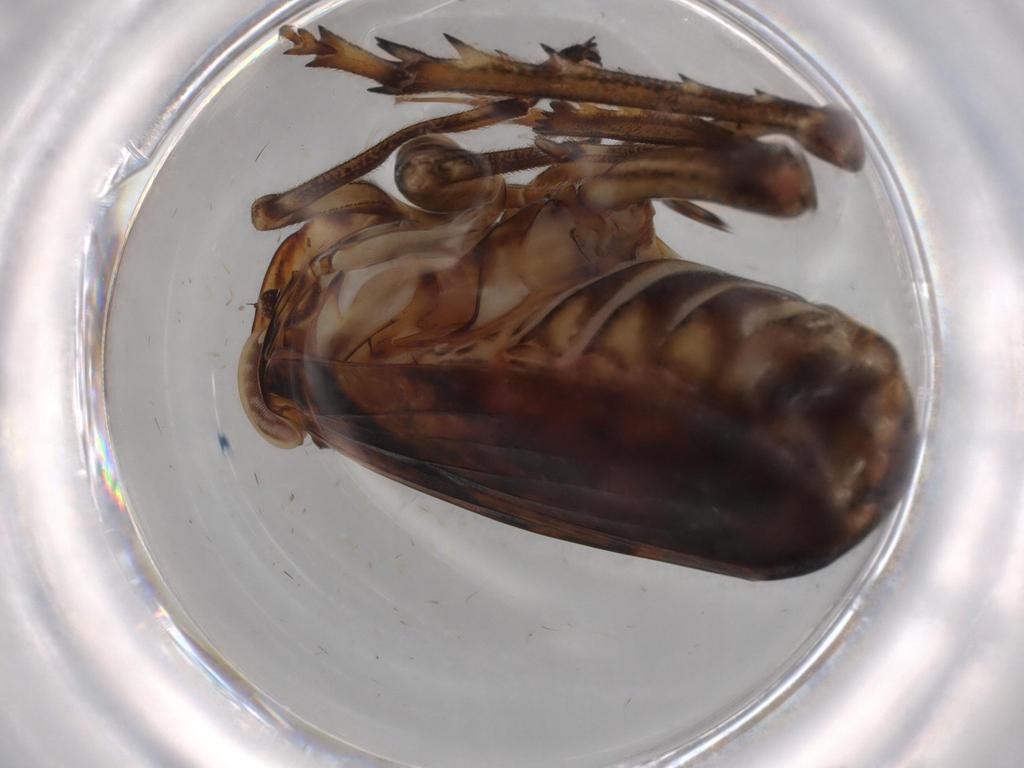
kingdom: Animalia
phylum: Arthropoda
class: Insecta
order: Hemiptera
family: Issidae
